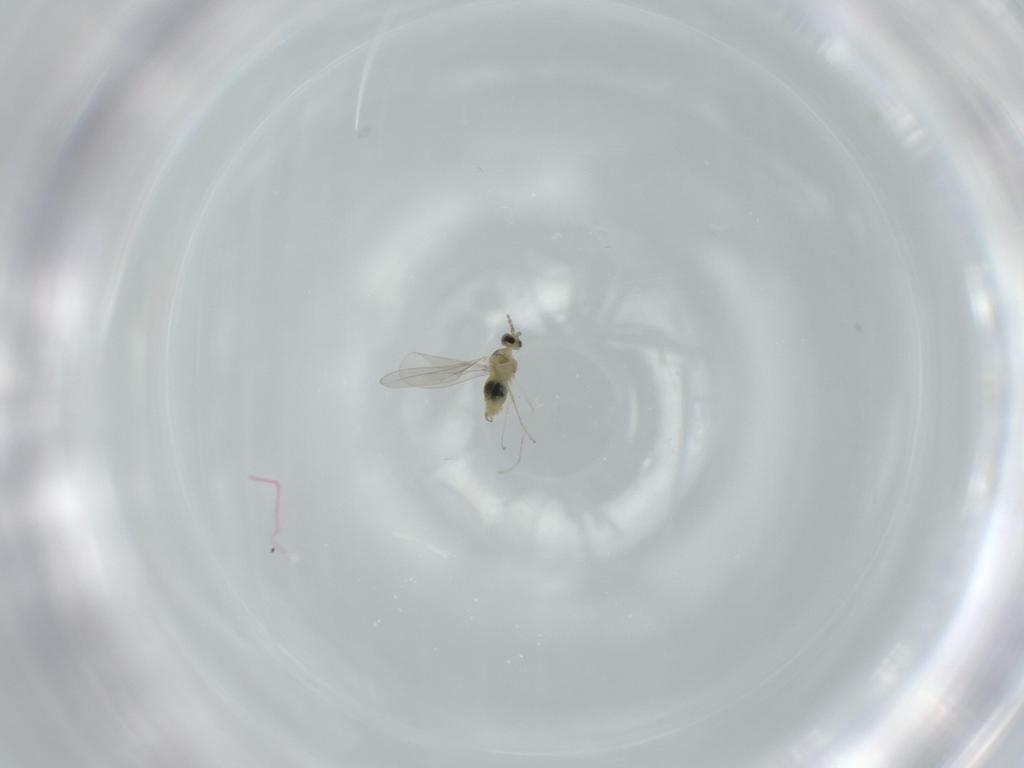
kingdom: Animalia
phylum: Arthropoda
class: Insecta
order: Diptera
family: Cecidomyiidae
